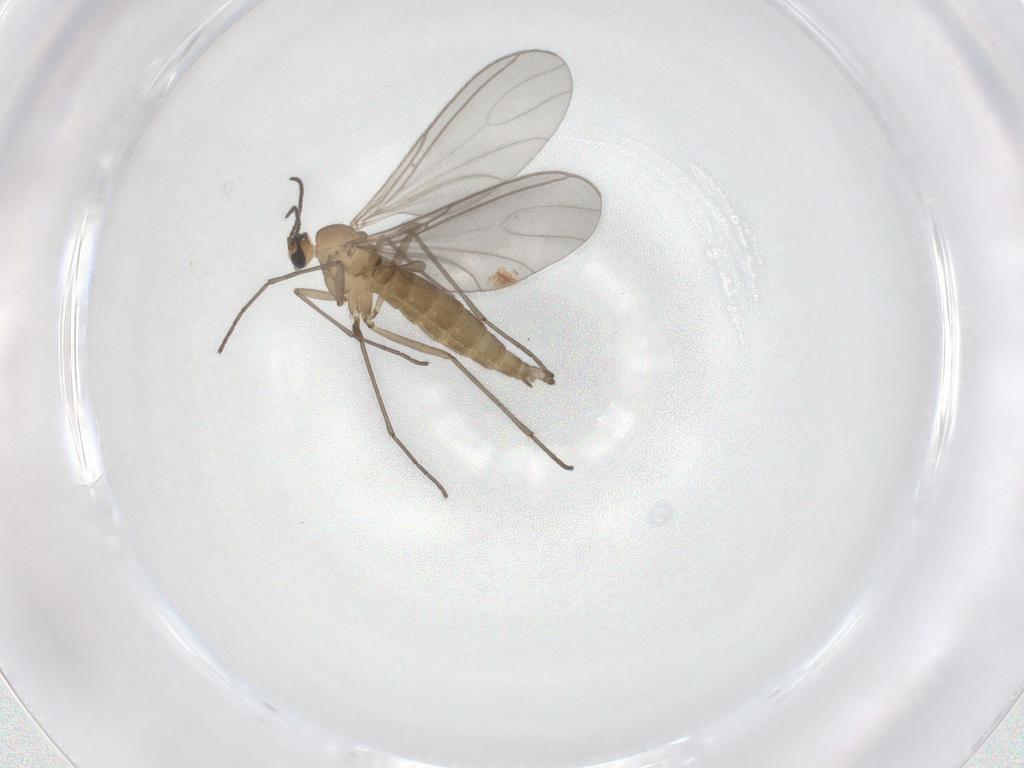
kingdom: Animalia
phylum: Arthropoda
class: Insecta
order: Diptera
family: Sciaridae
